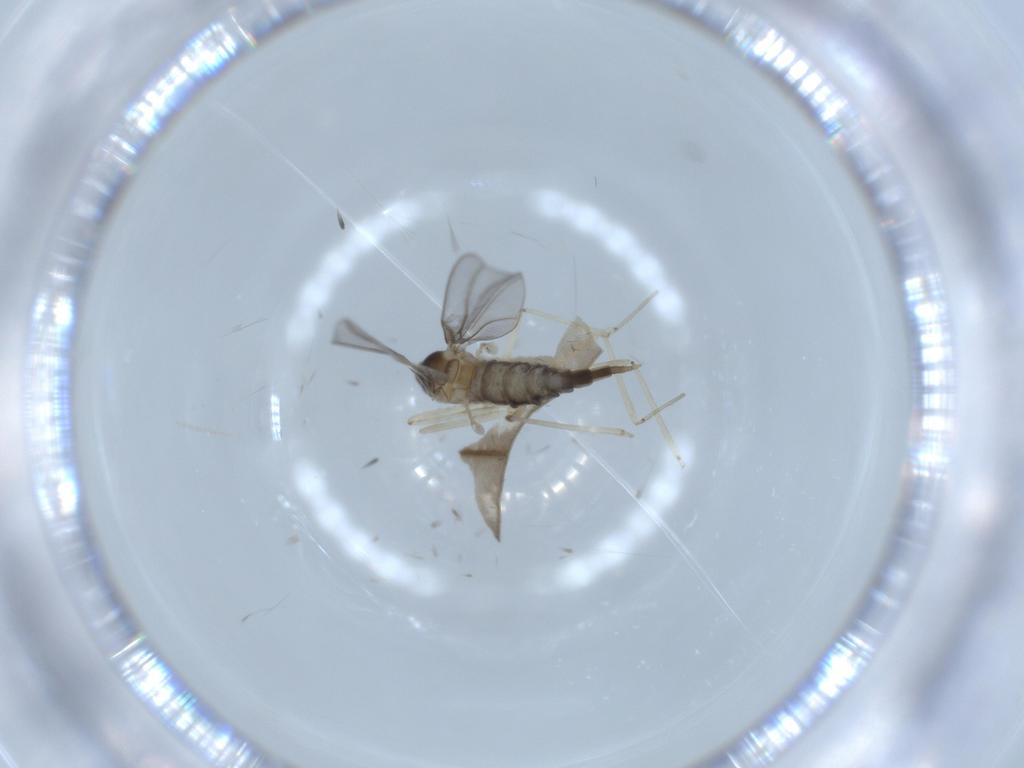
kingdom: Animalia
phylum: Arthropoda
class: Insecta
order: Diptera
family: Cecidomyiidae
